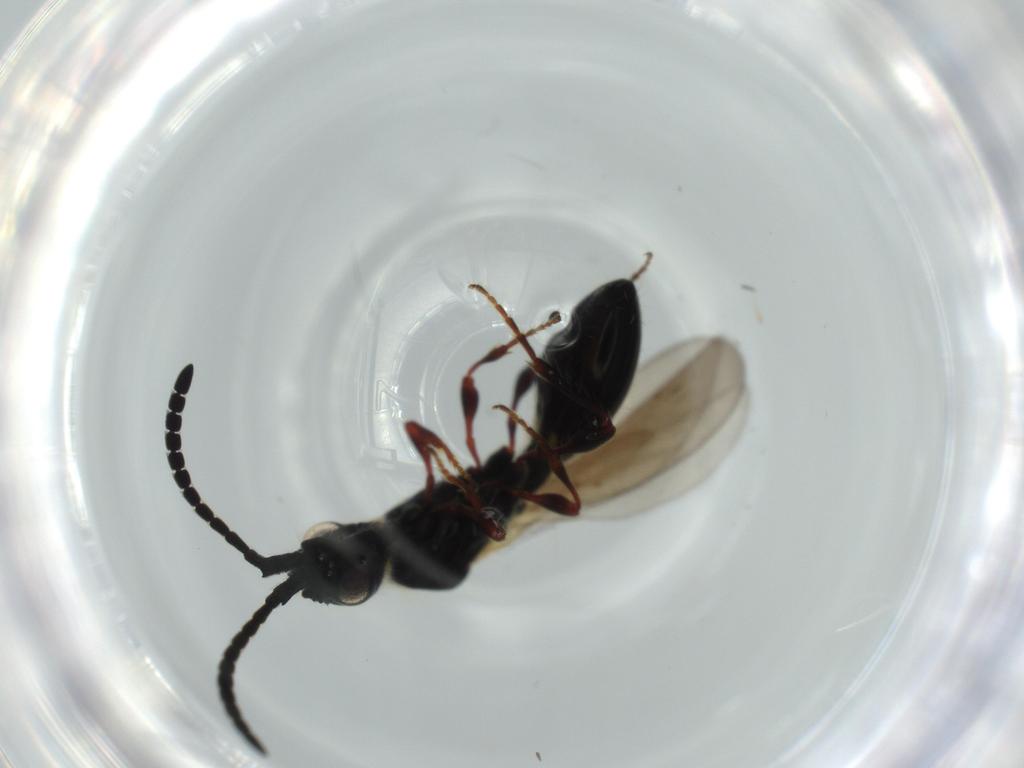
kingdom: Animalia
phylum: Arthropoda
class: Insecta
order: Hymenoptera
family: Diapriidae
